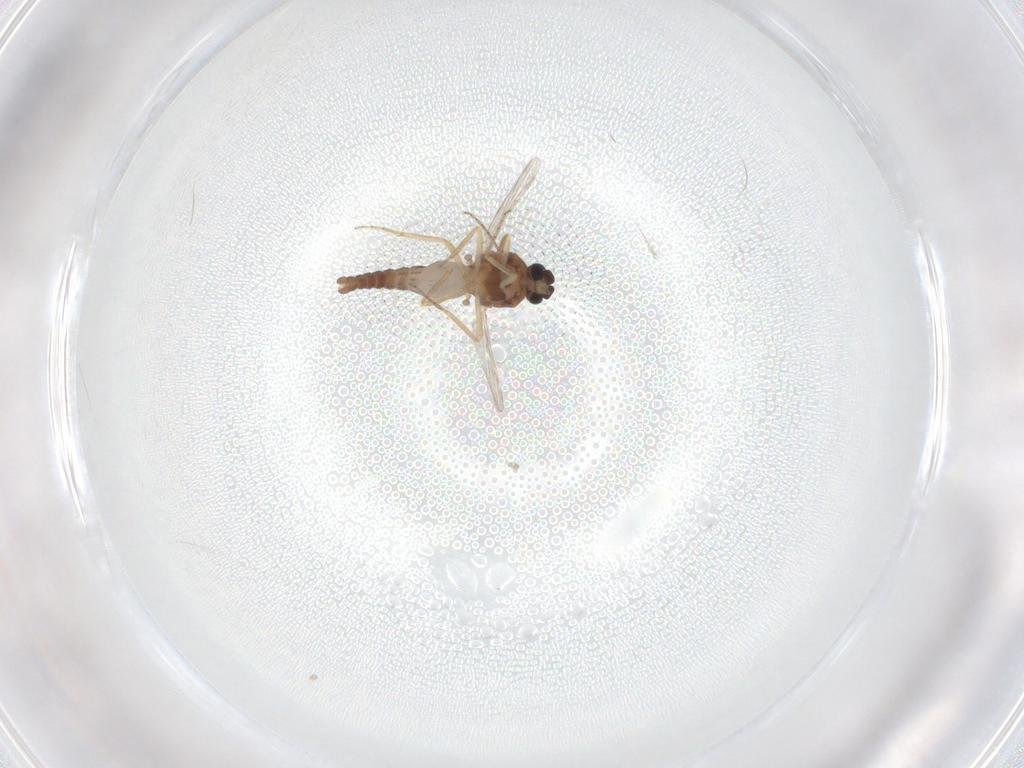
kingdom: Animalia
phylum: Arthropoda
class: Insecta
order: Diptera
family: Ceratopogonidae
